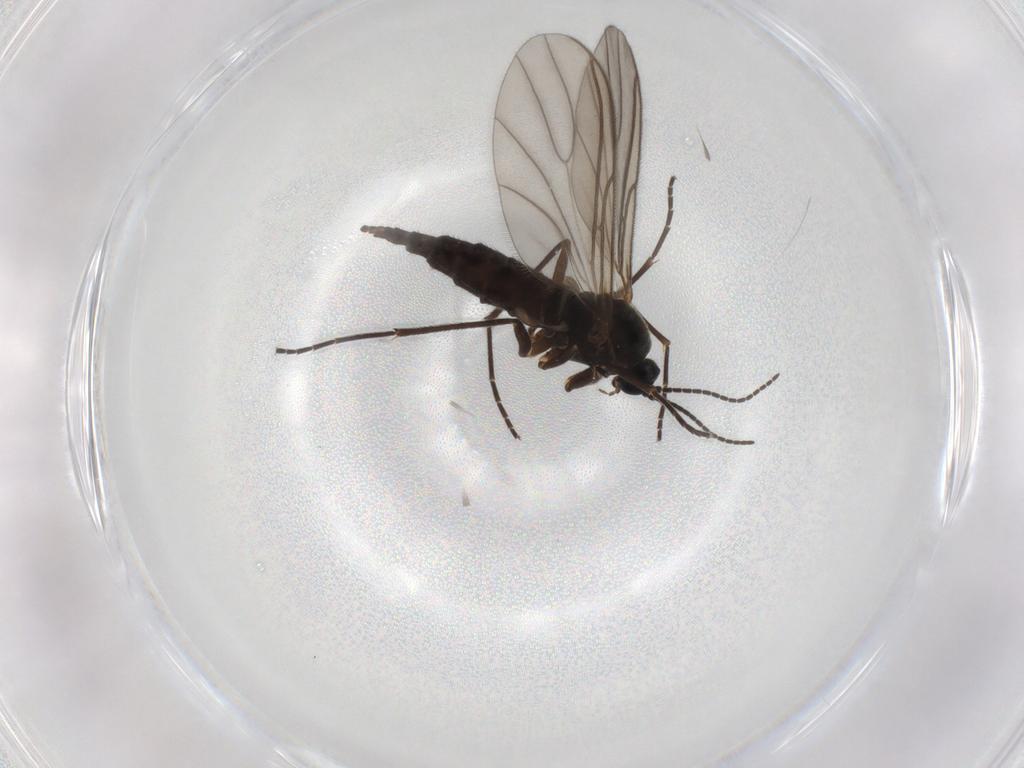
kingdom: Animalia
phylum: Arthropoda
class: Insecta
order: Diptera
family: Sciaridae
